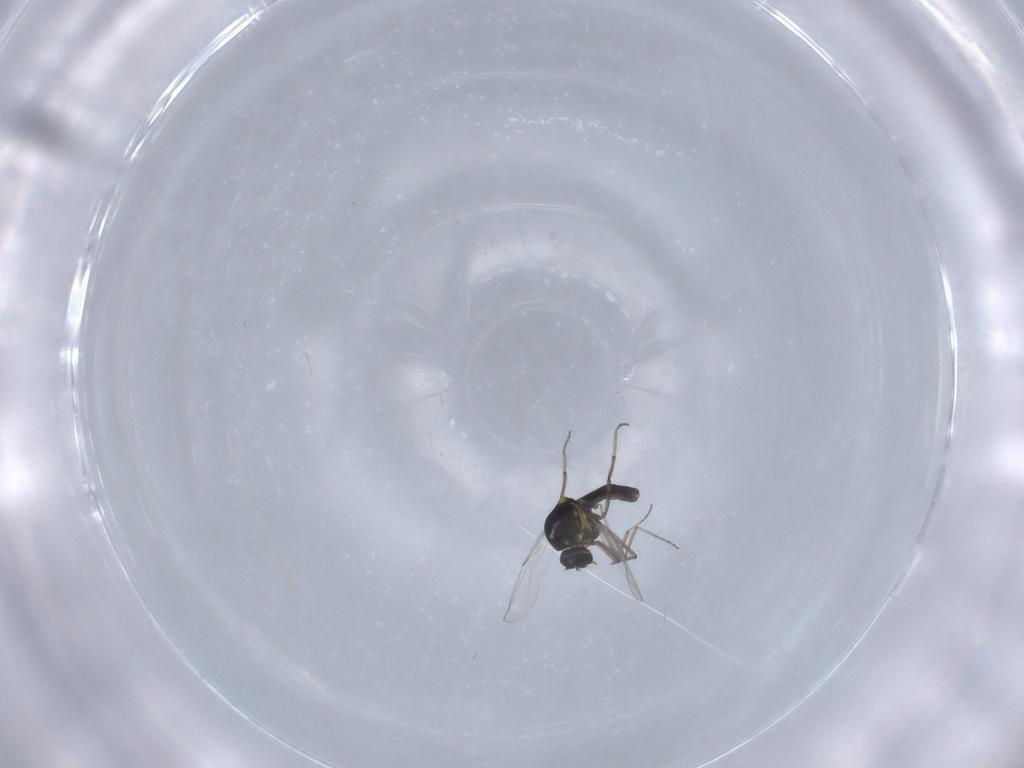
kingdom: Animalia
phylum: Arthropoda
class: Insecta
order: Diptera
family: Ceratopogonidae
